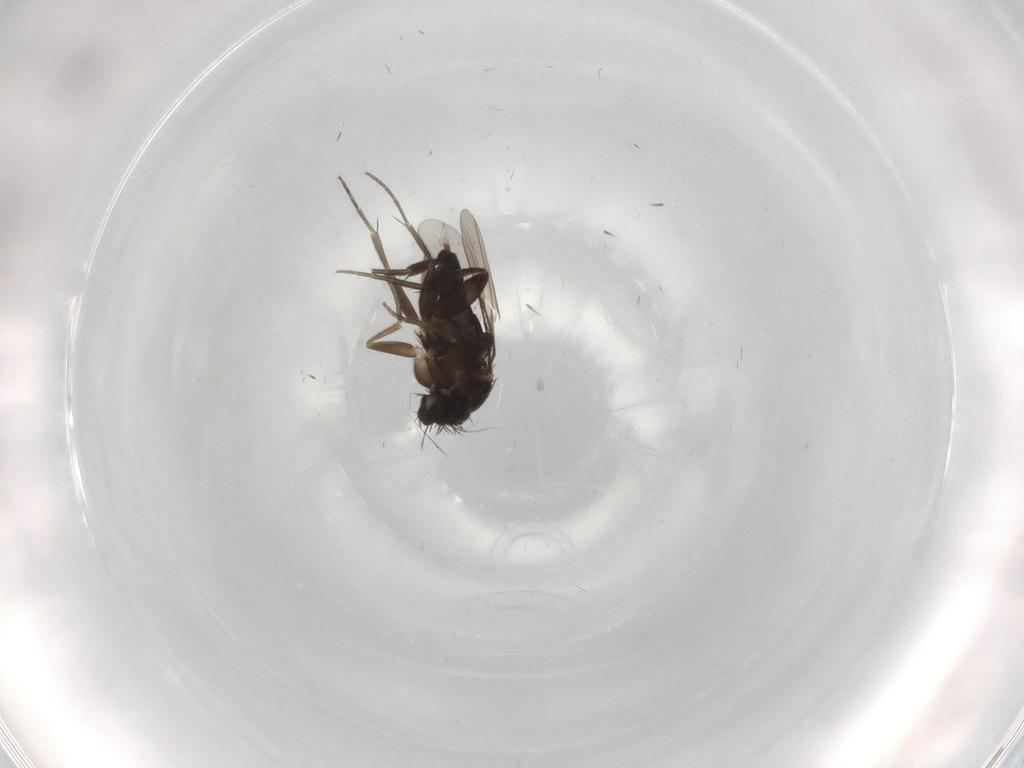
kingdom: Animalia
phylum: Arthropoda
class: Insecta
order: Diptera
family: Phoridae
